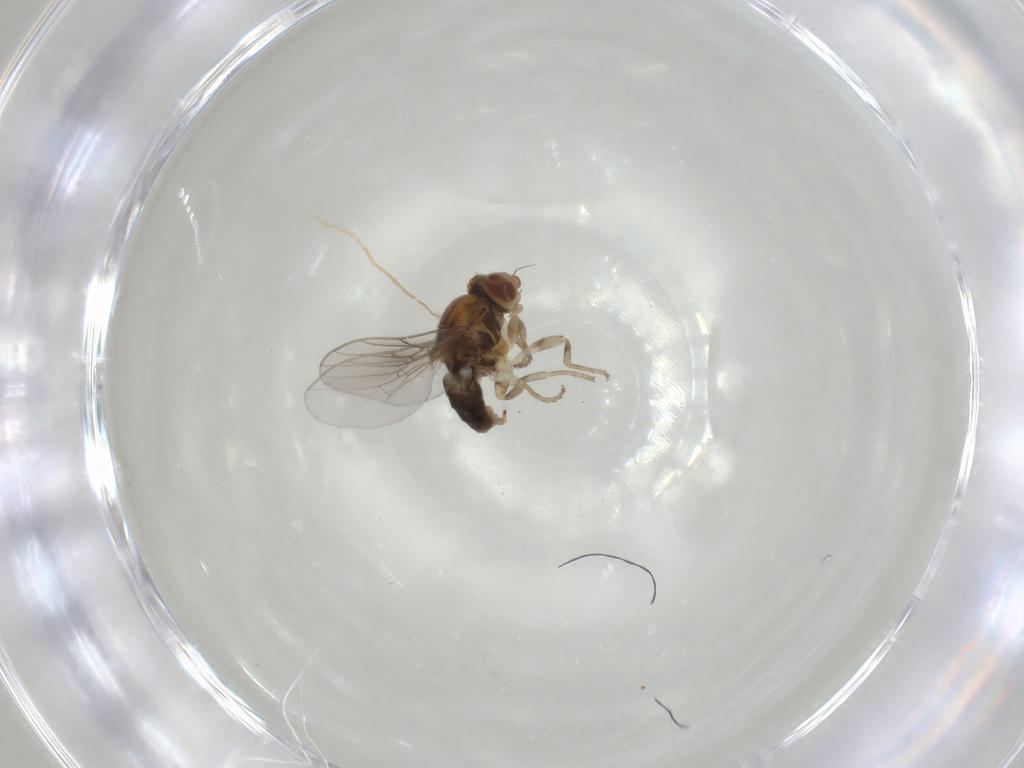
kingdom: Animalia
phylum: Arthropoda
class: Insecta
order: Diptera
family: Chloropidae
